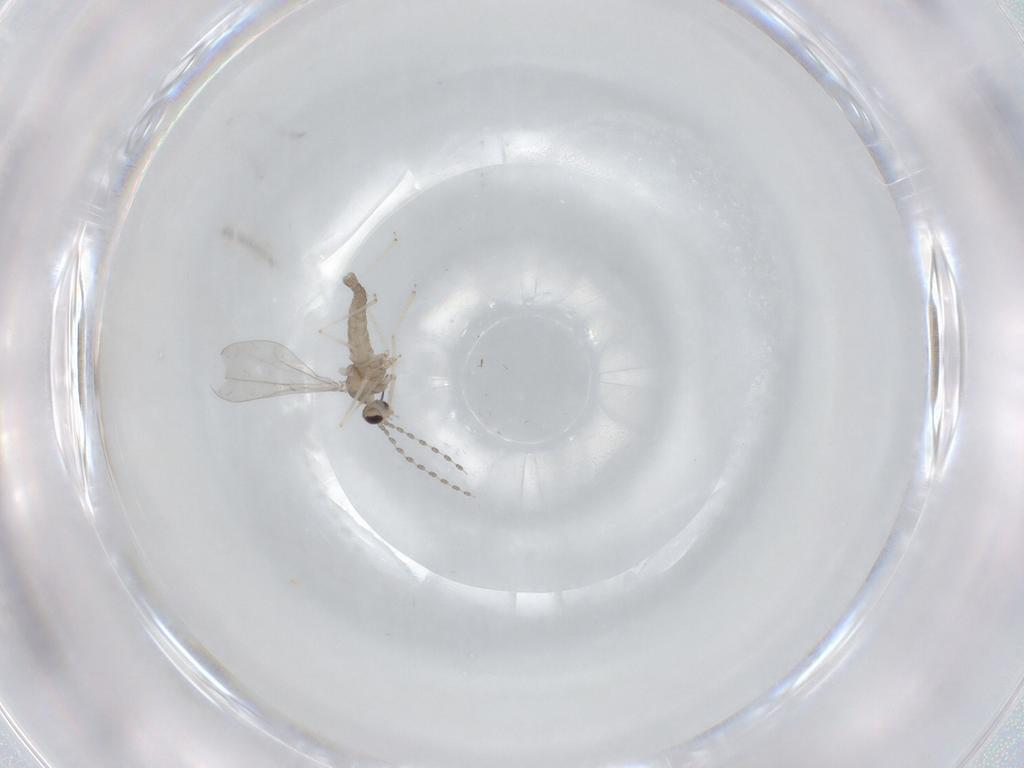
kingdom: Animalia
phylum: Arthropoda
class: Insecta
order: Diptera
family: Cecidomyiidae
